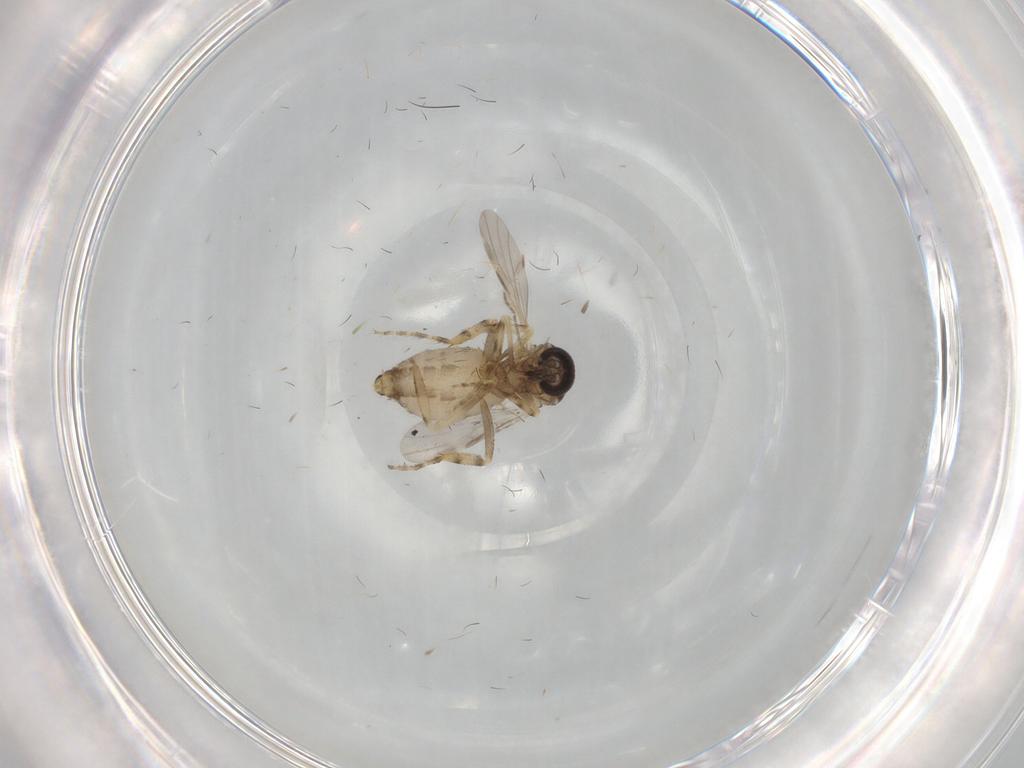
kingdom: Animalia
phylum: Arthropoda
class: Insecta
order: Diptera
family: Ceratopogonidae
